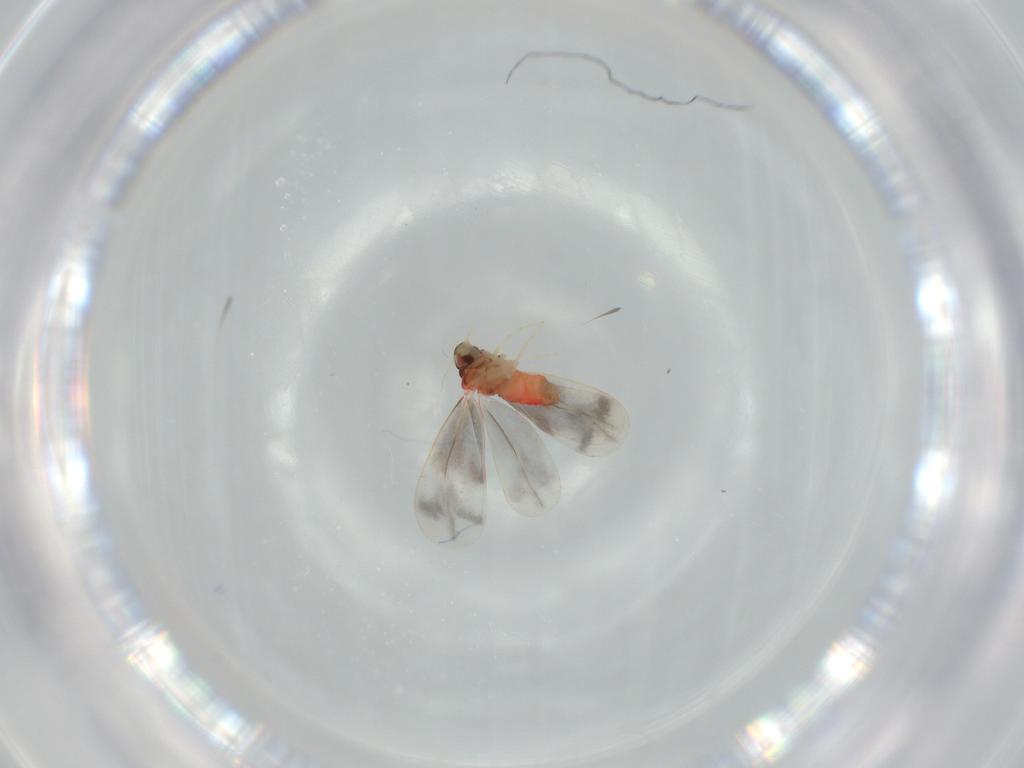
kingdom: Animalia
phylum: Arthropoda
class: Insecta
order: Hemiptera
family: Aleyrodidae
